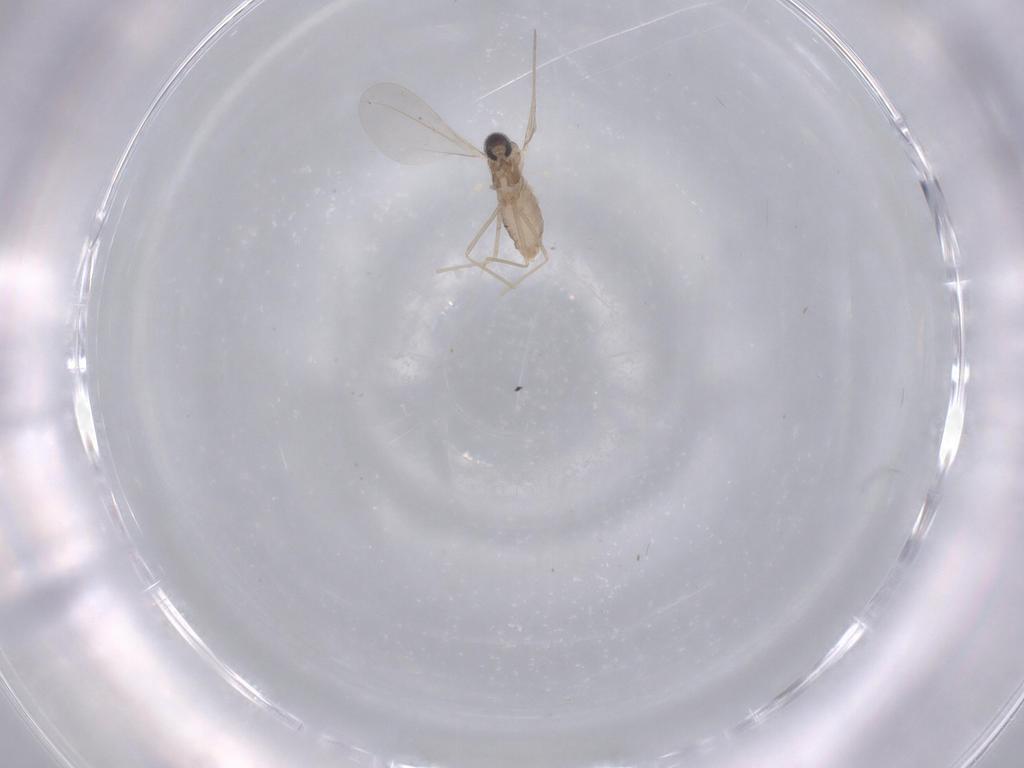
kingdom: Animalia
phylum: Arthropoda
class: Insecta
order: Diptera
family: Cecidomyiidae
